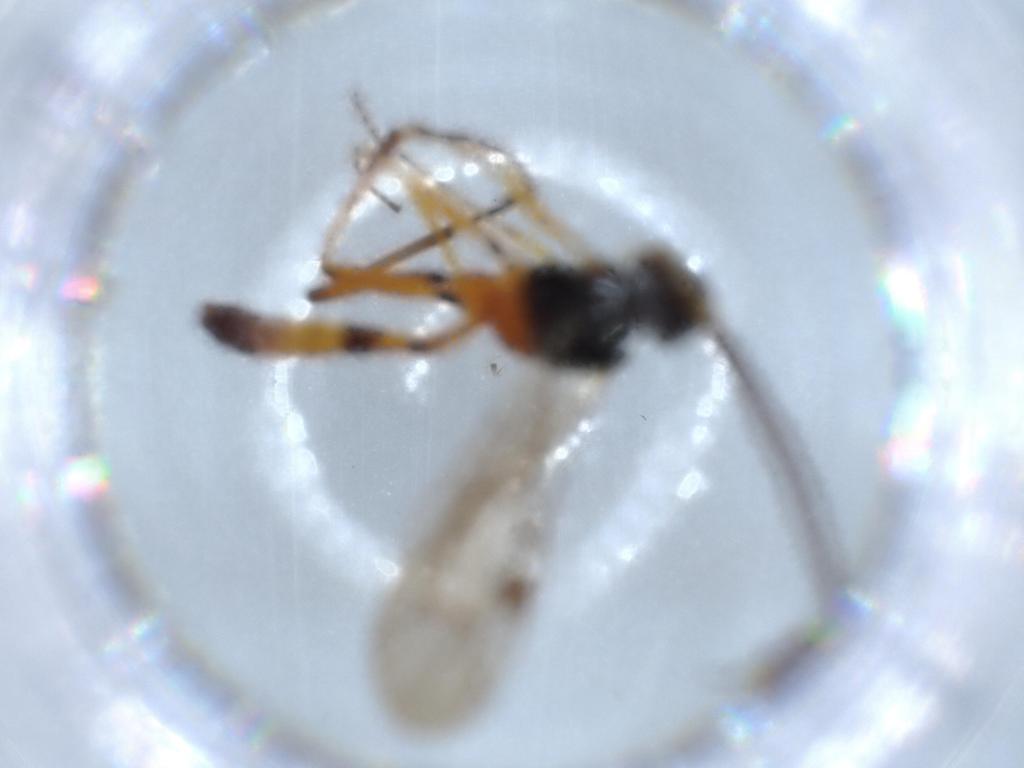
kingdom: Animalia
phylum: Arthropoda
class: Insecta
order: Hymenoptera
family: Ichneumonidae
